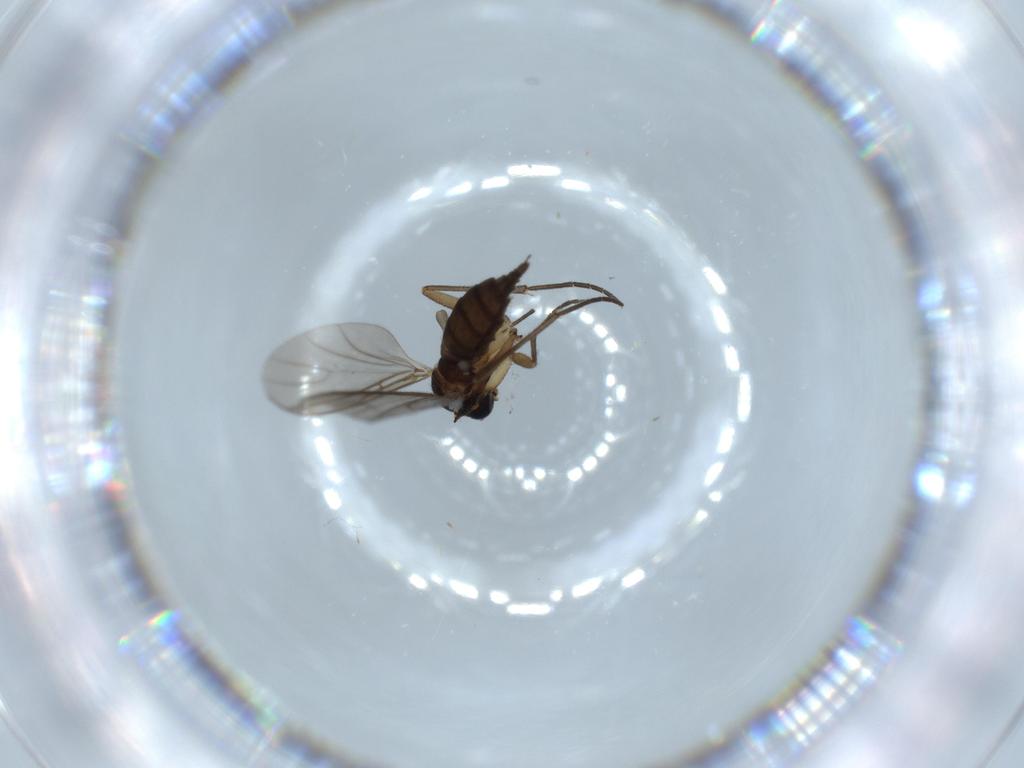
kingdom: Animalia
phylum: Arthropoda
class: Insecta
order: Diptera
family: Sciaridae
